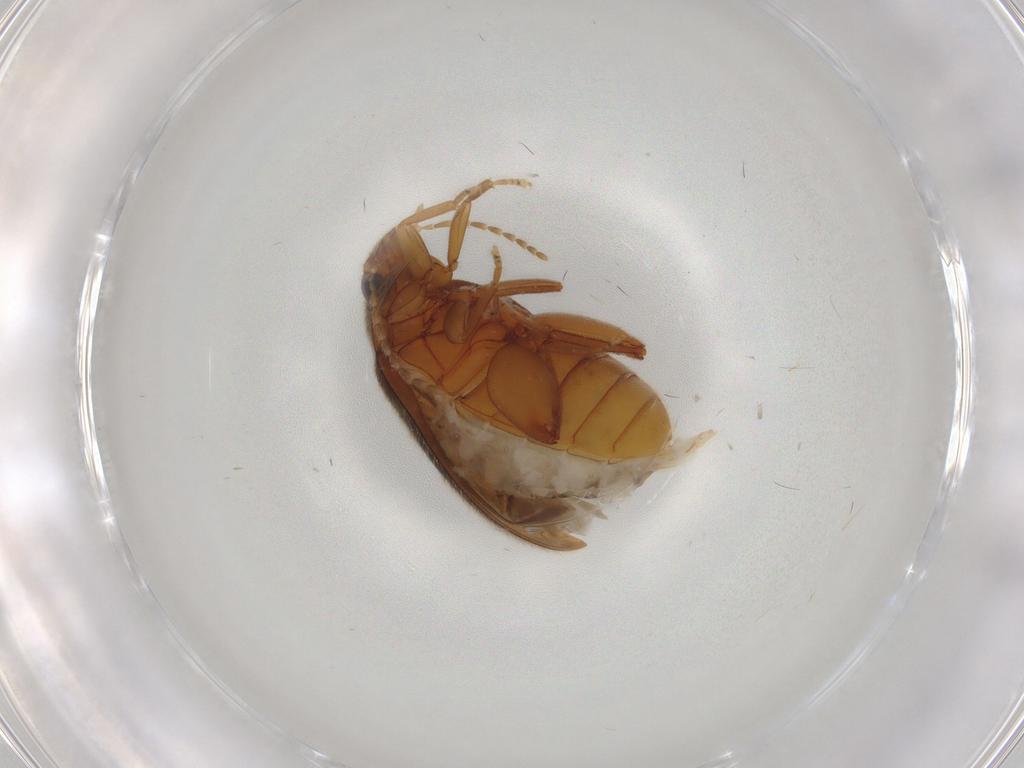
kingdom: Animalia
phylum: Arthropoda
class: Insecta
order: Coleoptera
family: Scirtidae
